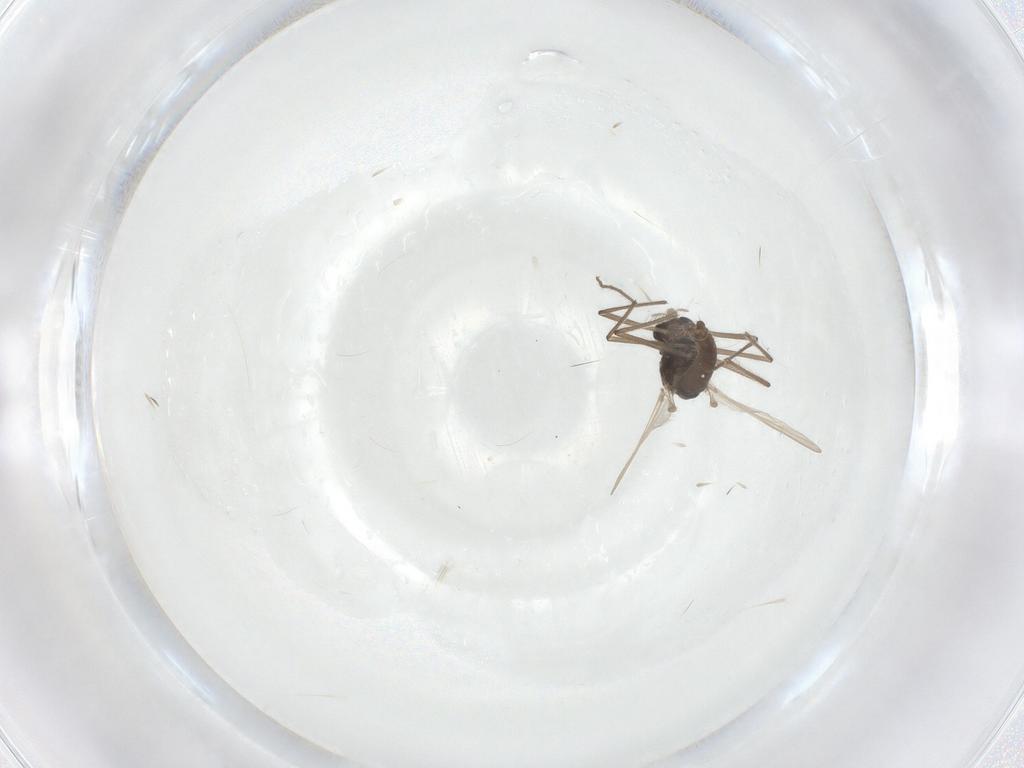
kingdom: Animalia
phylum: Arthropoda
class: Insecta
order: Diptera
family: Chironomidae
